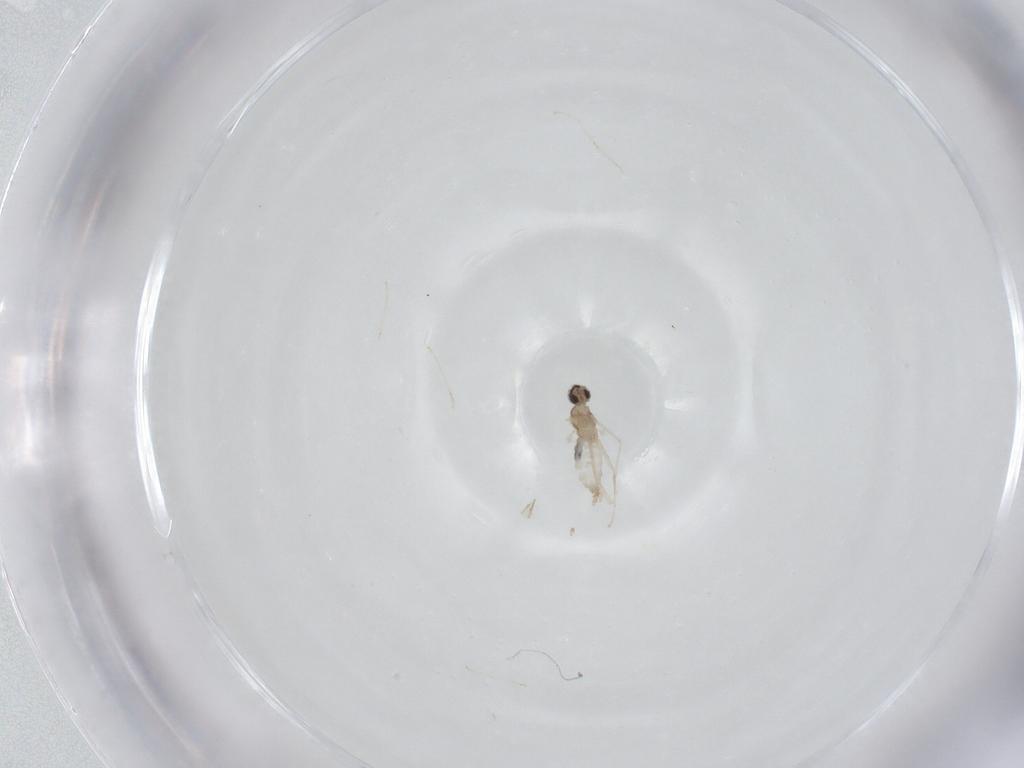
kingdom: Animalia
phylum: Arthropoda
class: Insecta
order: Diptera
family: Cecidomyiidae
